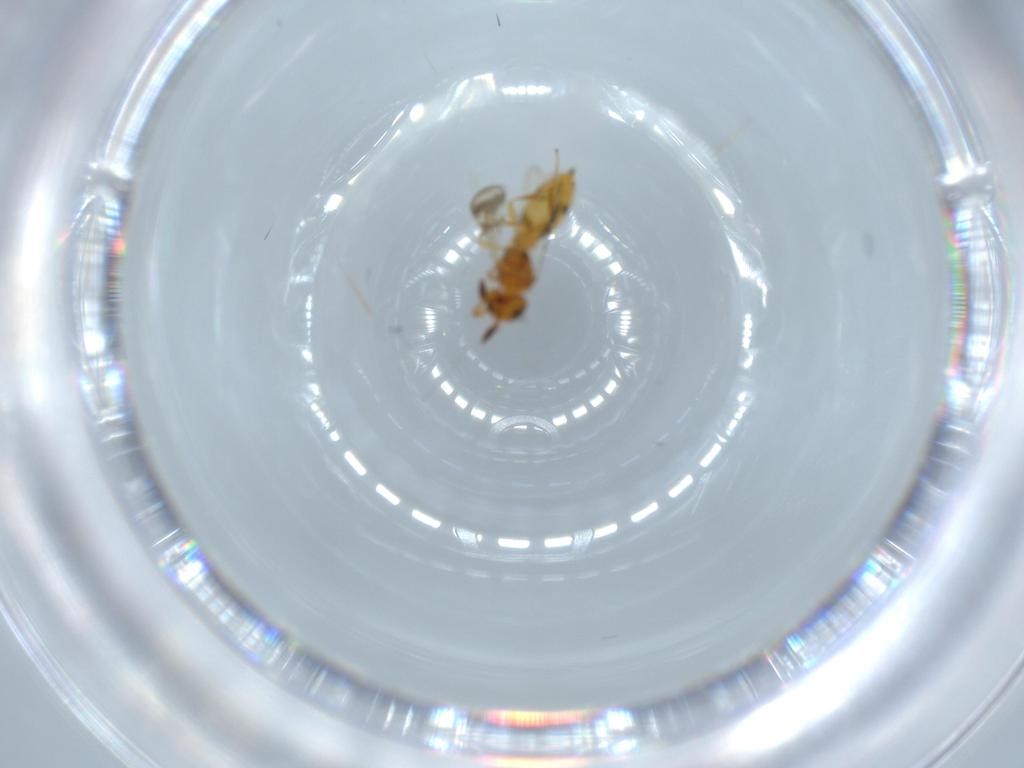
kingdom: Animalia
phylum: Arthropoda
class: Insecta
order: Hymenoptera
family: Scelionidae
